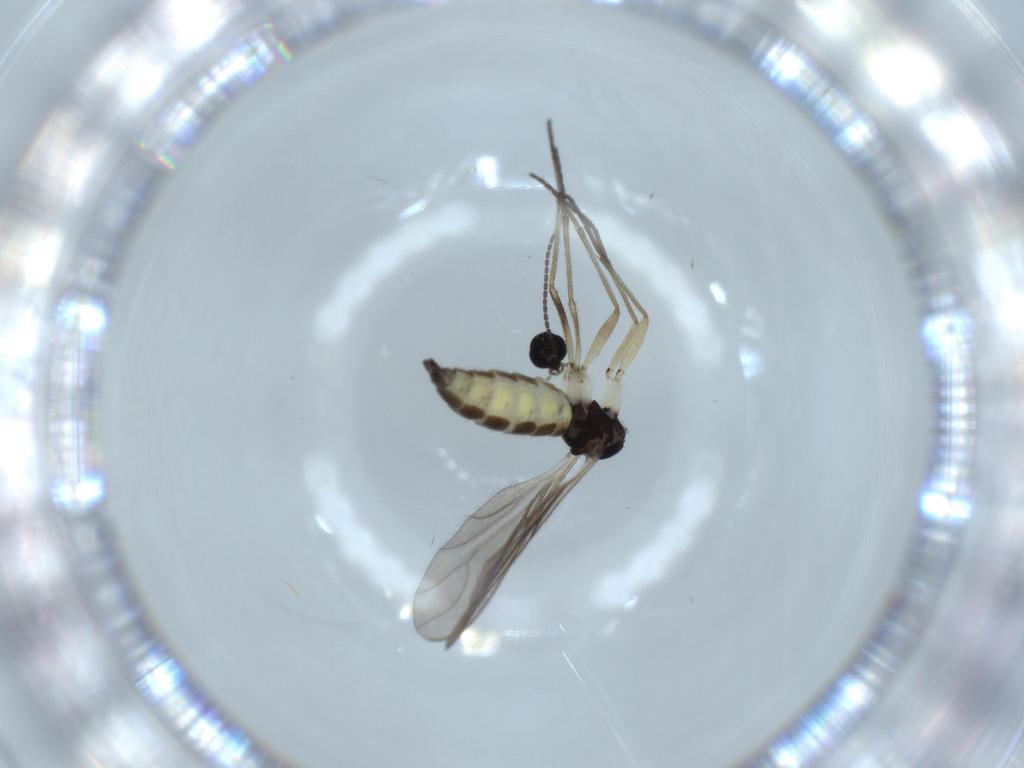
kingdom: Animalia
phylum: Arthropoda
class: Insecta
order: Diptera
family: Sciaridae
